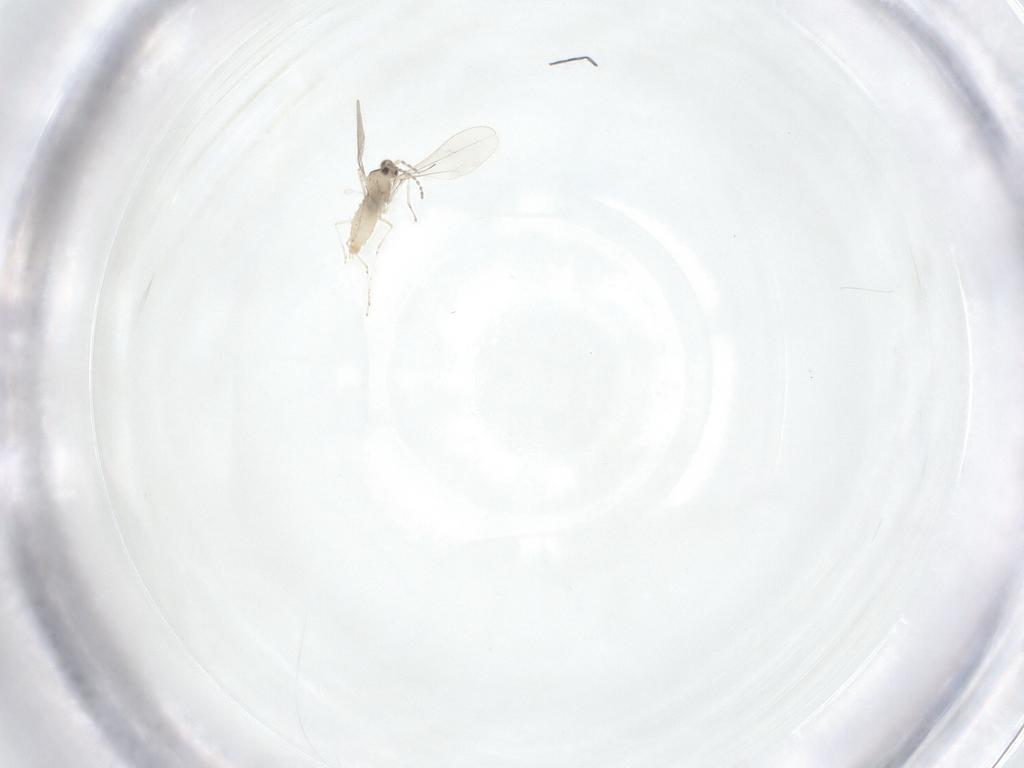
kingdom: Animalia
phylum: Arthropoda
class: Insecta
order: Diptera
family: Cecidomyiidae
